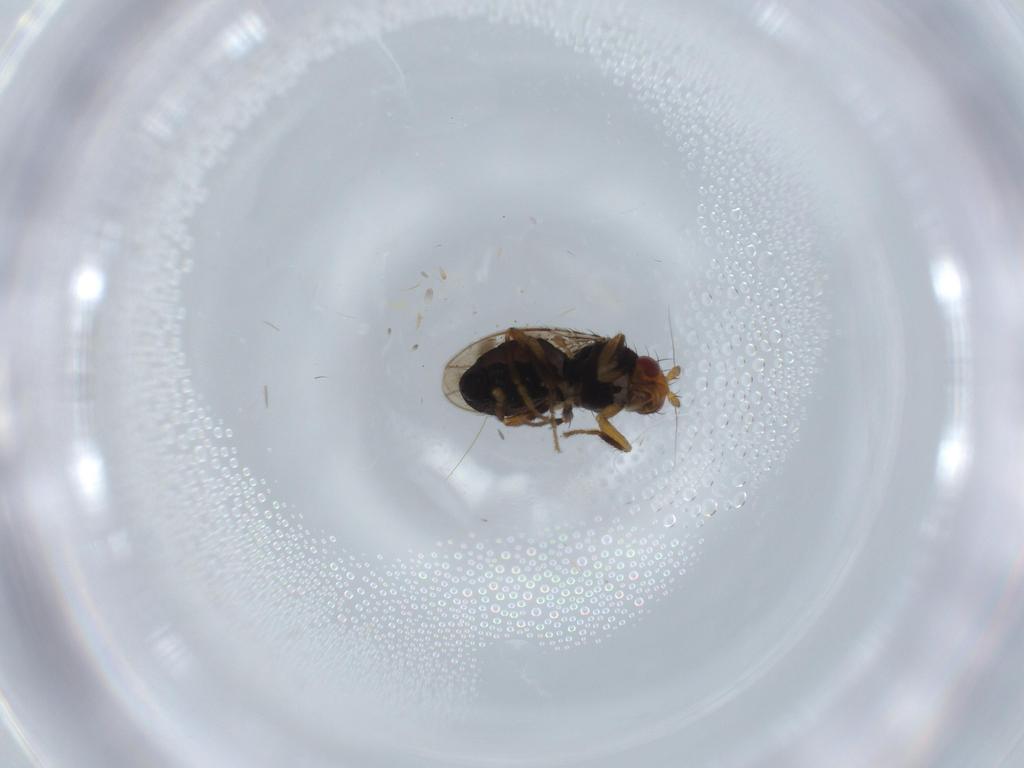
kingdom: Animalia
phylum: Arthropoda
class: Insecta
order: Diptera
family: Sphaeroceridae
